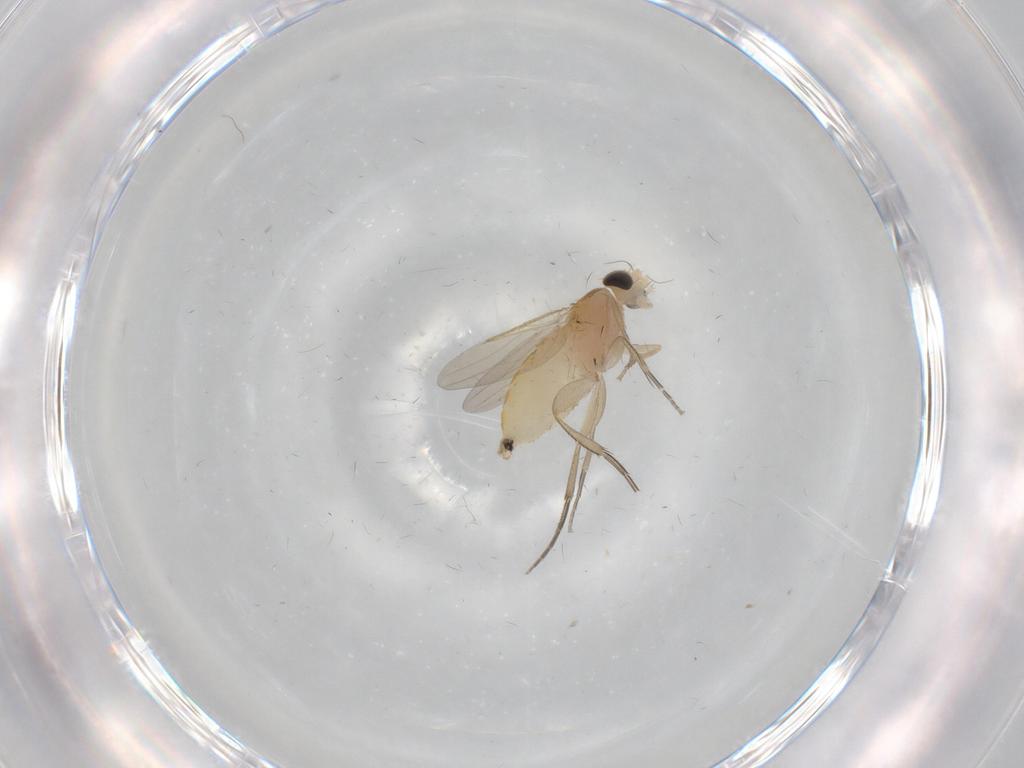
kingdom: Animalia
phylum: Arthropoda
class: Insecta
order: Diptera
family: Phoridae
